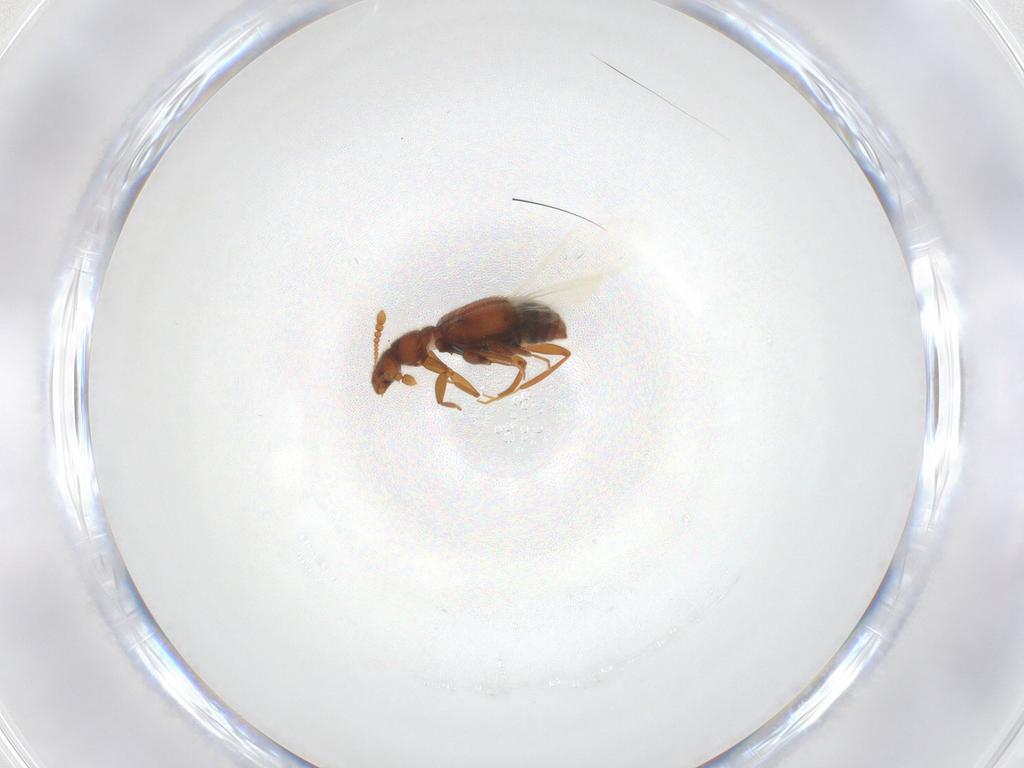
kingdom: Animalia
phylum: Arthropoda
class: Insecta
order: Coleoptera
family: Staphylinidae
